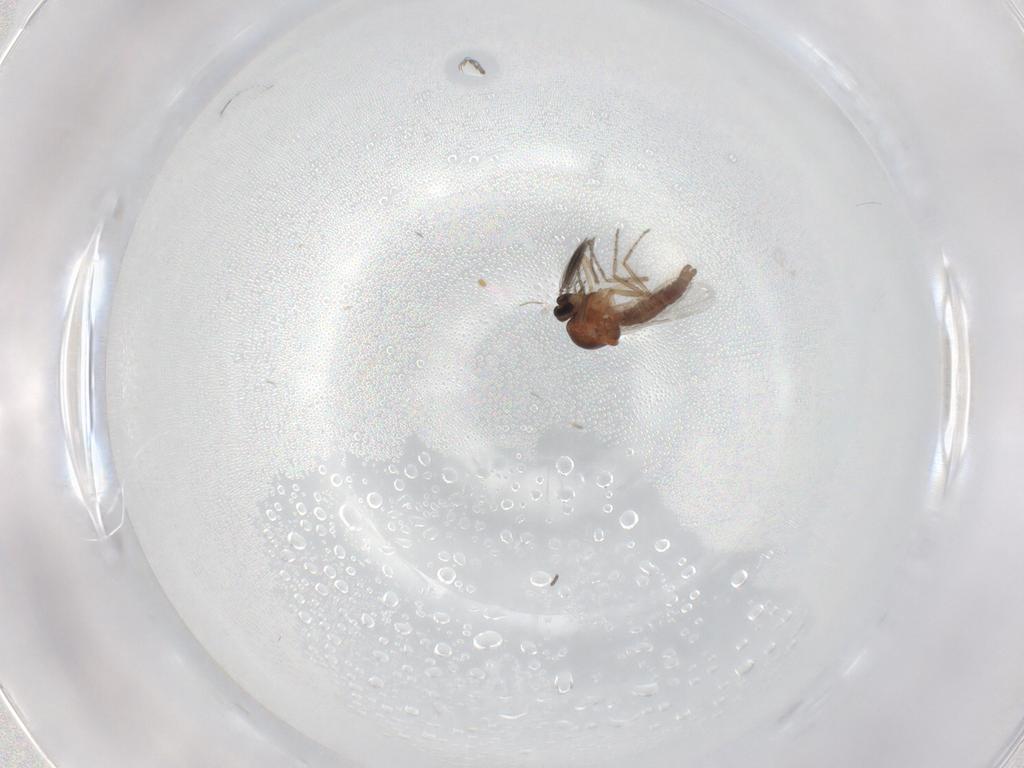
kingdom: Animalia
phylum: Arthropoda
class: Insecta
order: Diptera
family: Ceratopogonidae
